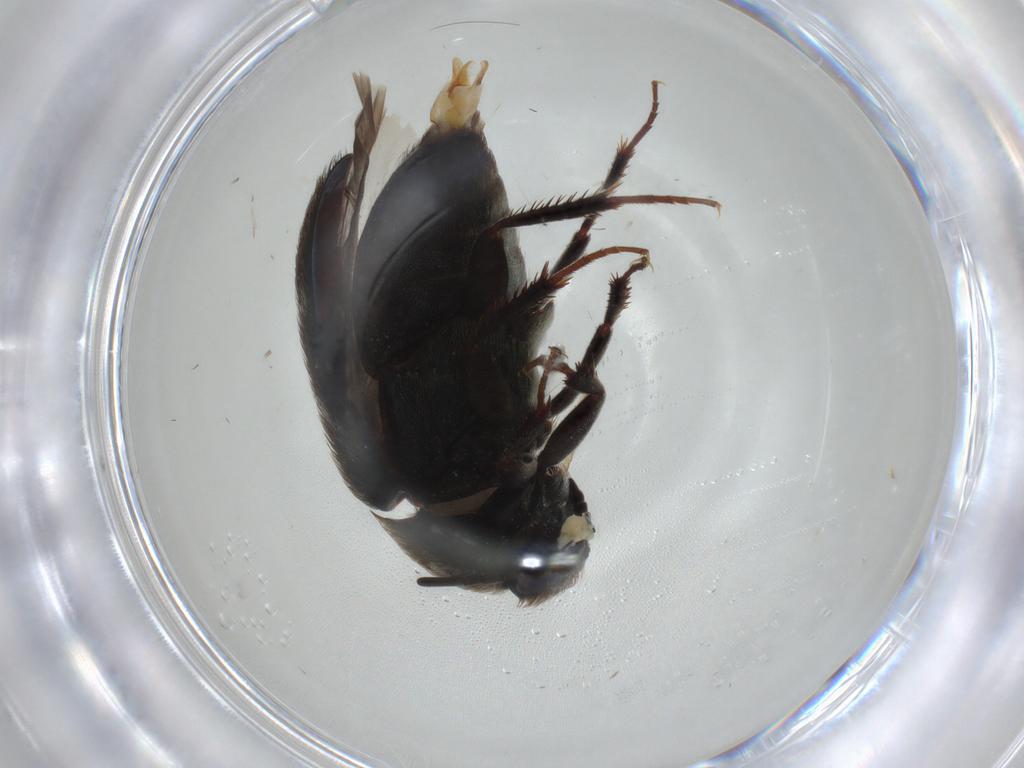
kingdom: Animalia
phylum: Arthropoda
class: Insecta
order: Coleoptera
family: Dermestidae
